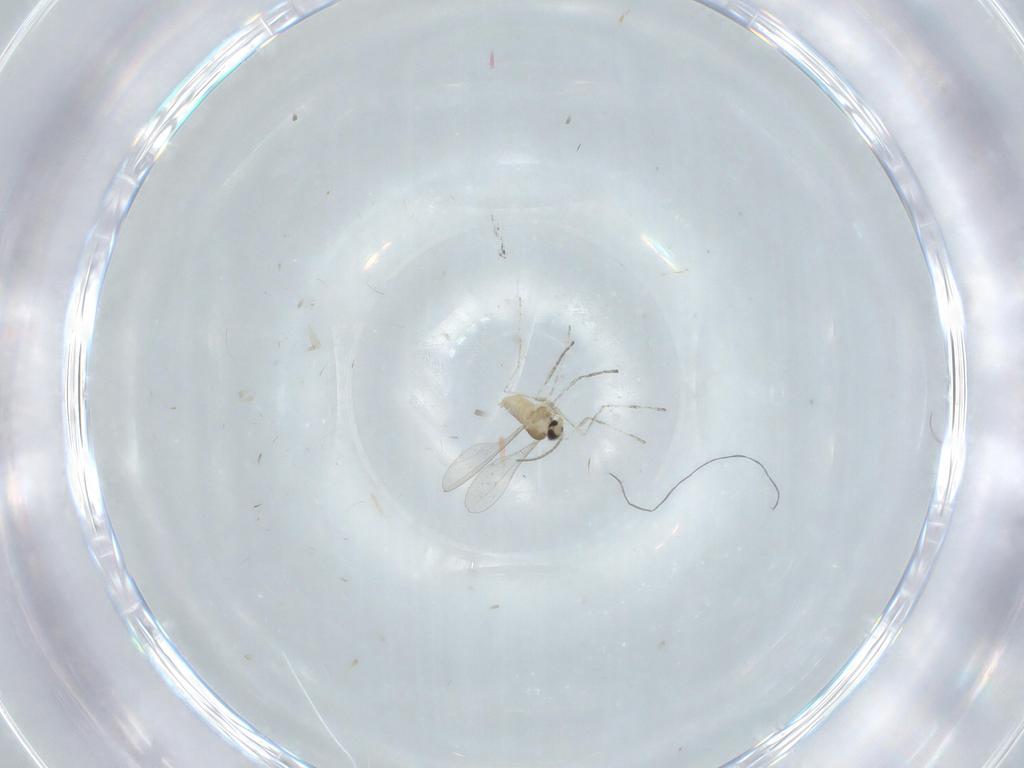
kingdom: Animalia
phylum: Arthropoda
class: Insecta
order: Diptera
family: Cecidomyiidae
